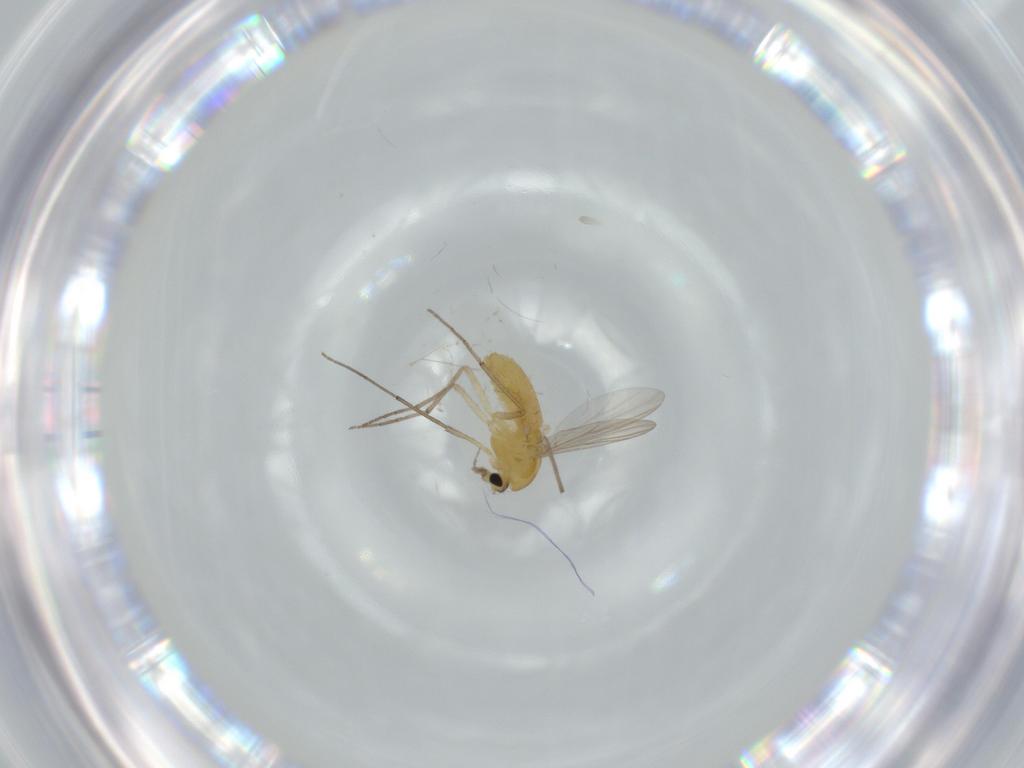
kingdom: Animalia
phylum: Arthropoda
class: Insecta
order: Diptera
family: Chironomidae
